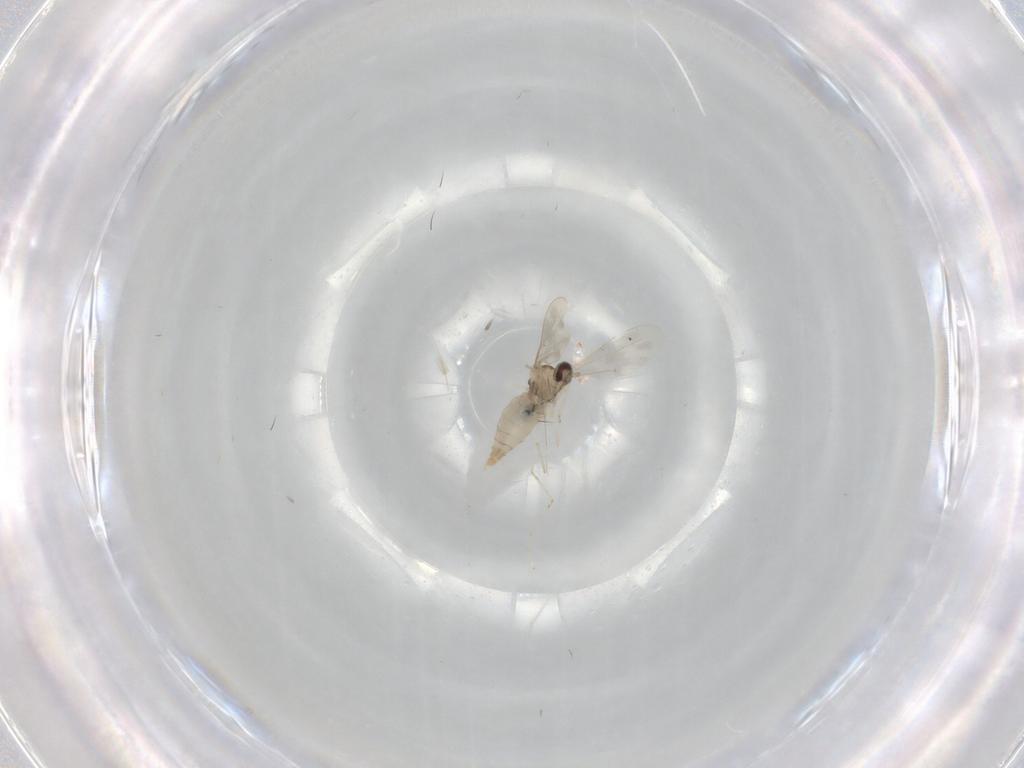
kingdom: Animalia
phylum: Arthropoda
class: Insecta
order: Diptera
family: Cecidomyiidae
